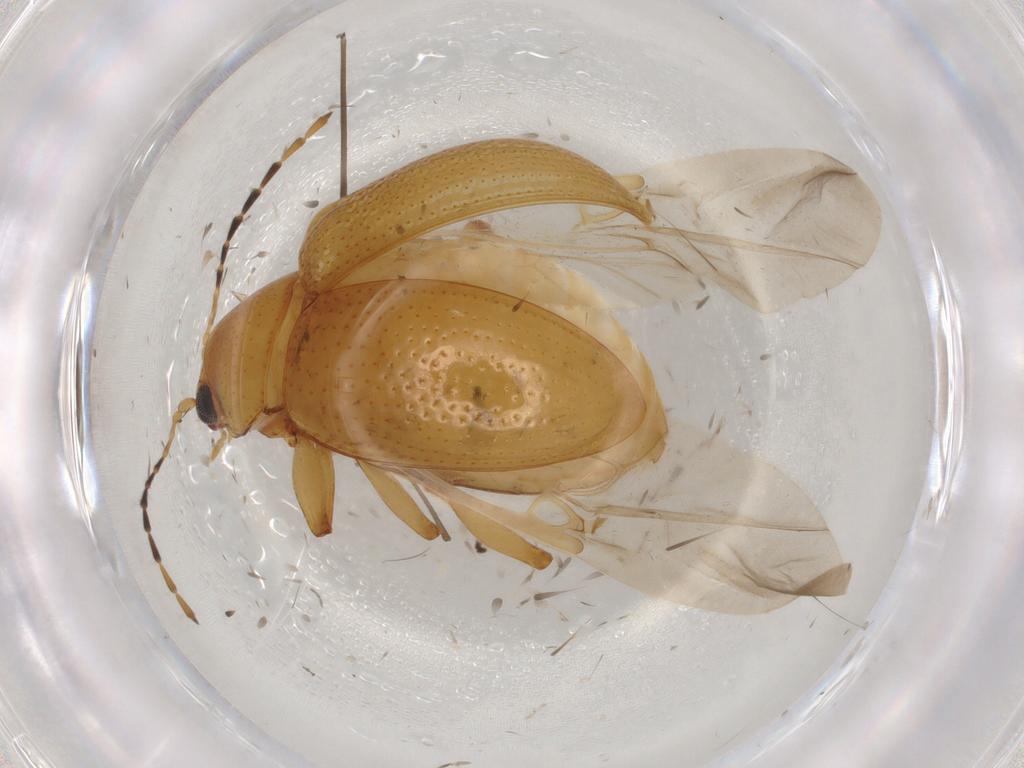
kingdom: Animalia
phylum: Arthropoda
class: Insecta
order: Coleoptera
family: Chrysomelidae
